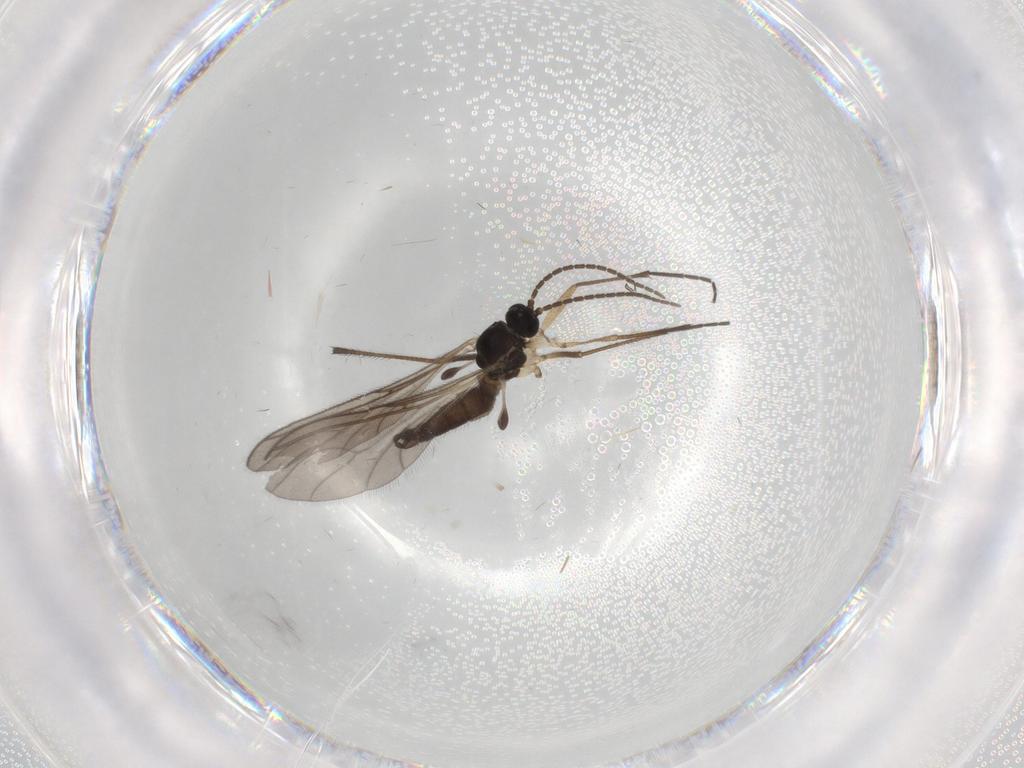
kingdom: Animalia
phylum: Arthropoda
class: Insecta
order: Diptera
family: Sciaridae
